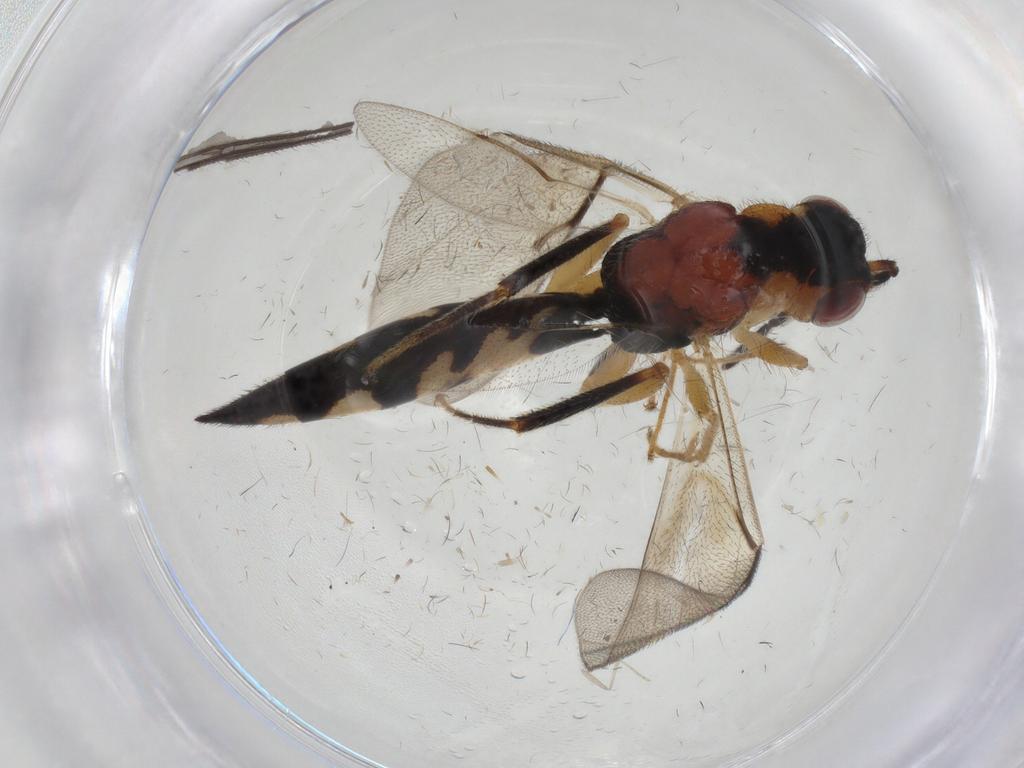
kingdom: Animalia
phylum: Arthropoda
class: Insecta
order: Hymenoptera
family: Eurytomidae
